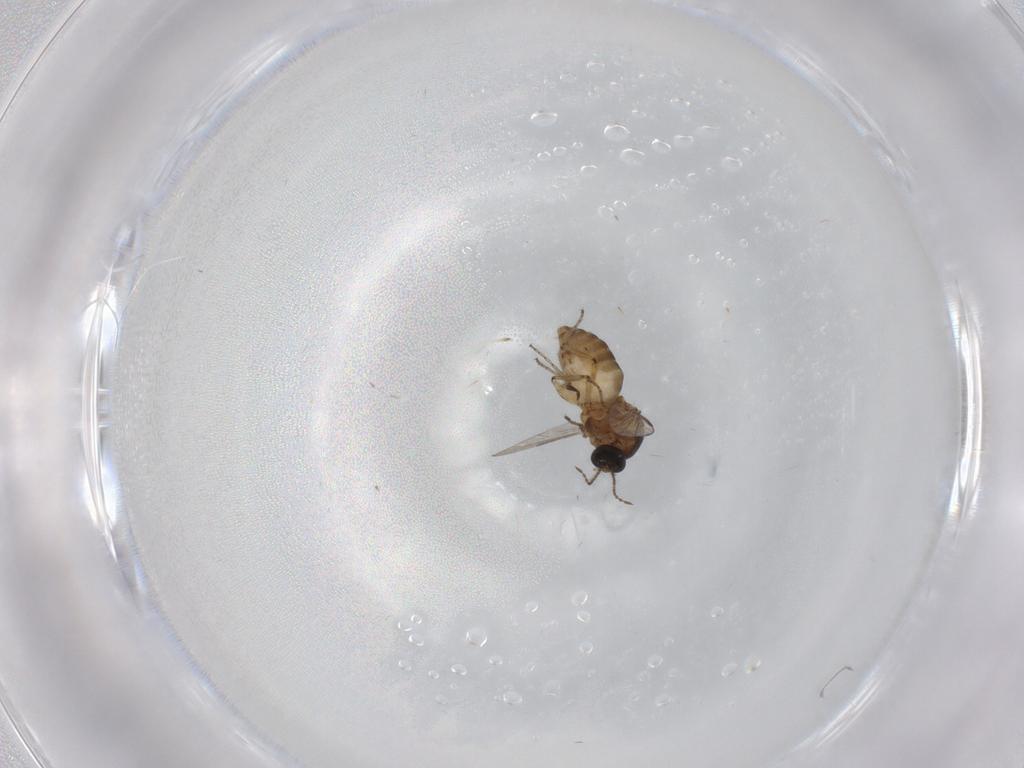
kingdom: Animalia
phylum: Arthropoda
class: Insecta
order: Diptera
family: Ceratopogonidae
